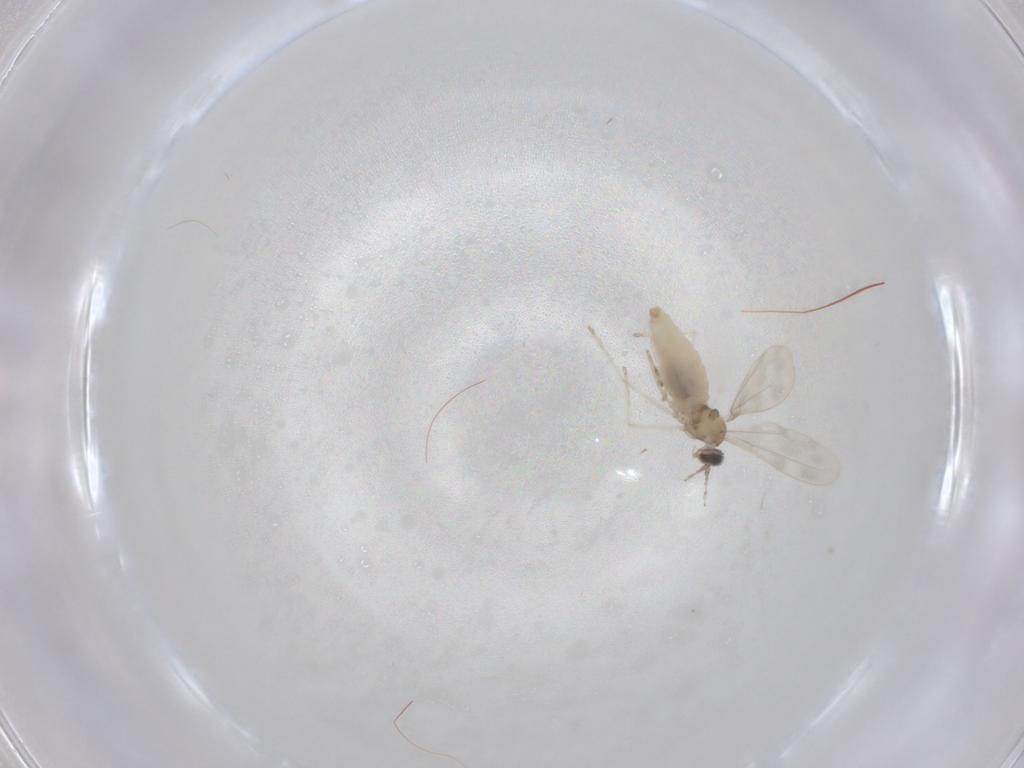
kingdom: Animalia
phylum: Arthropoda
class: Insecta
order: Diptera
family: Cecidomyiidae
